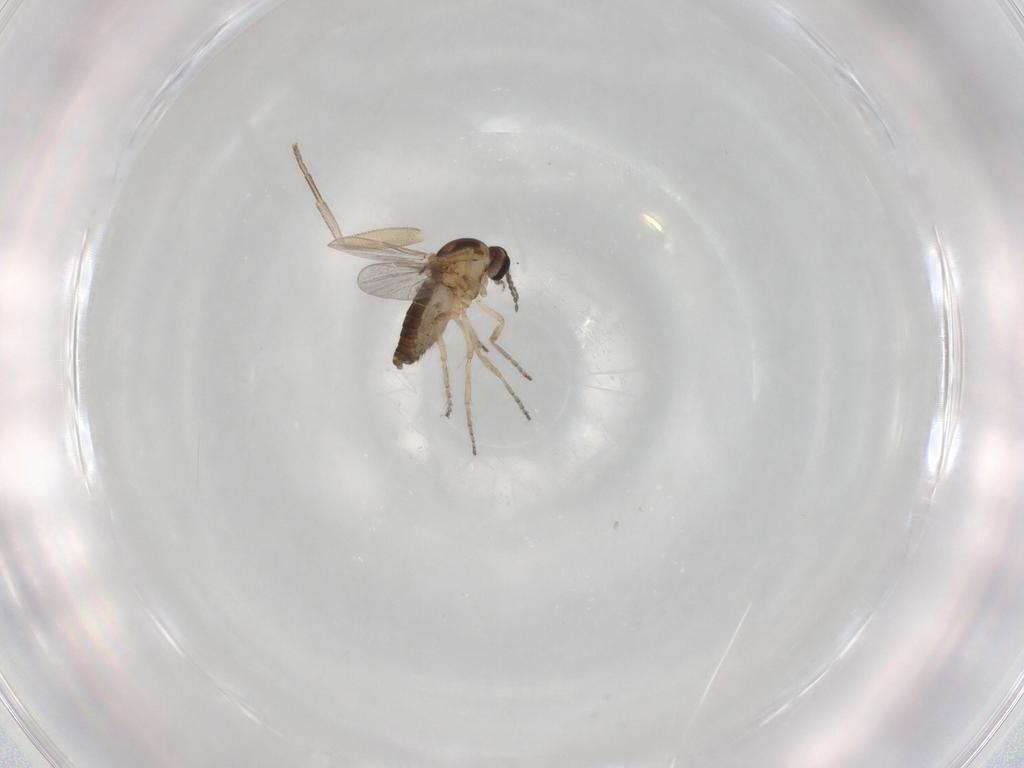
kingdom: Animalia
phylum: Arthropoda
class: Insecta
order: Diptera
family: Ceratopogonidae
